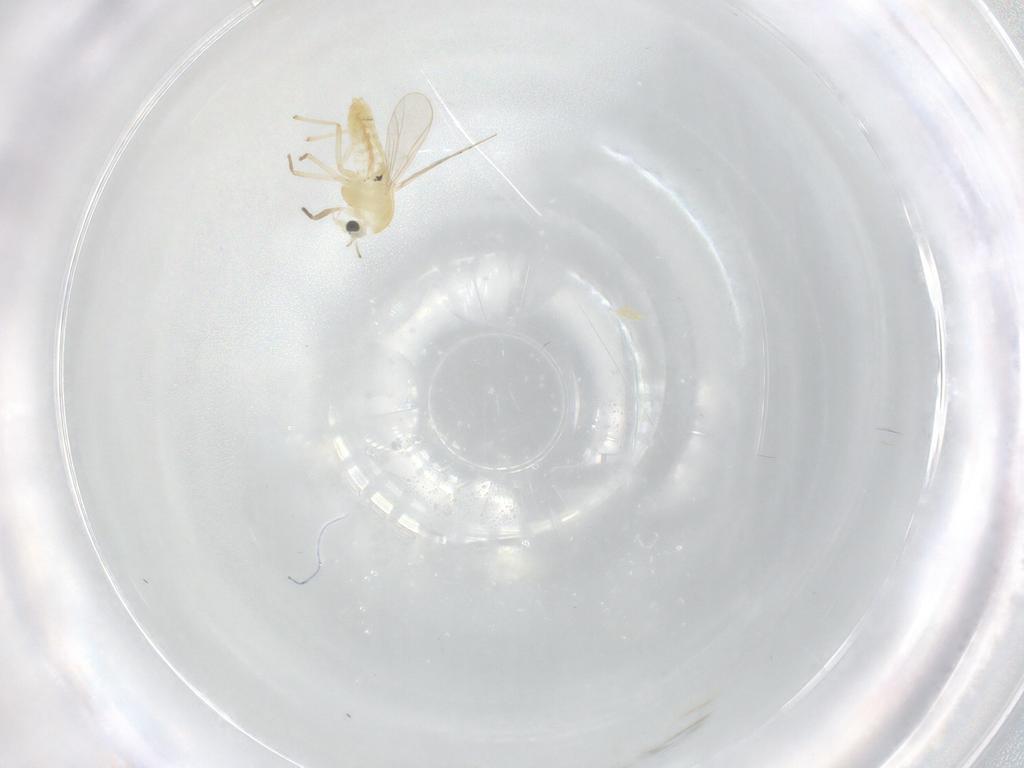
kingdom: Animalia
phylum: Arthropoda
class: Insecta
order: Diptera
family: Chironomidae
